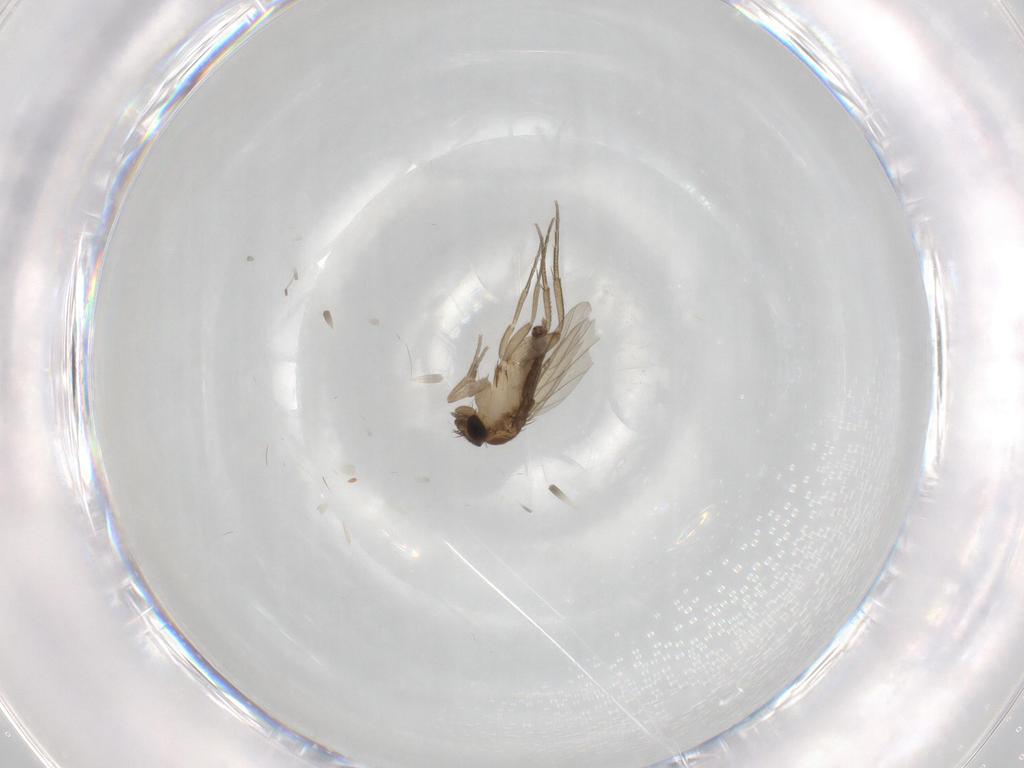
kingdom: Animalia
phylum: Arthropoda
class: Insecta
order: Diptera
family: Phoridae
